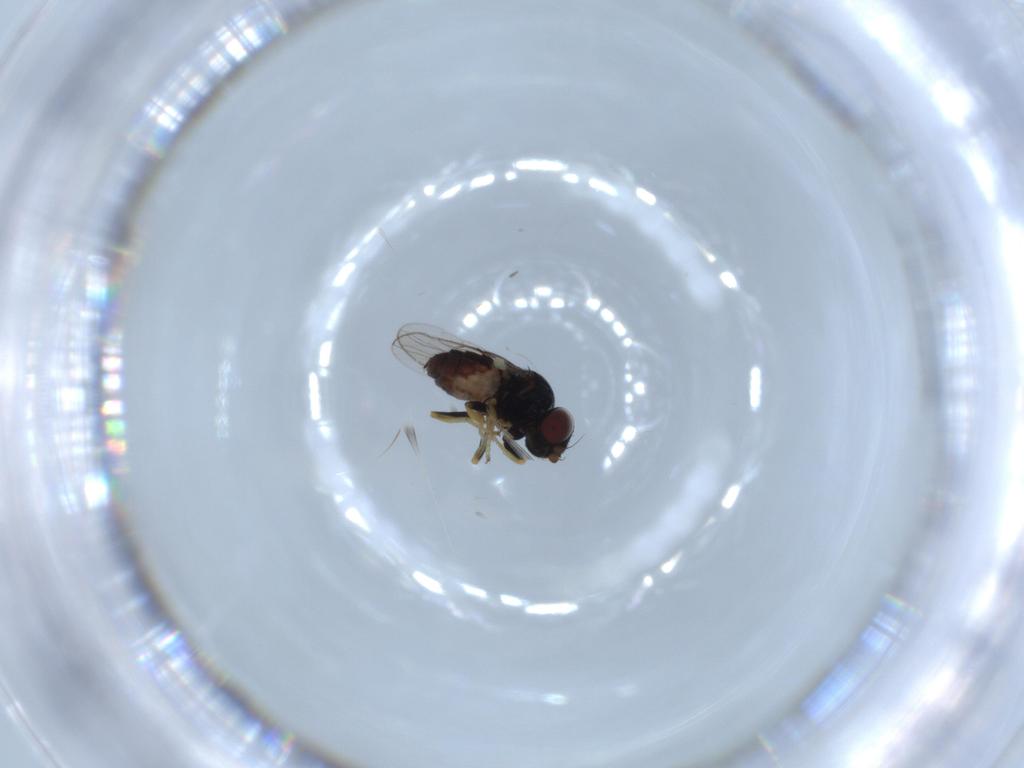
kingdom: Animalia
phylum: Arthropoda
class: Insecta
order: Diptera
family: Chloropidae
